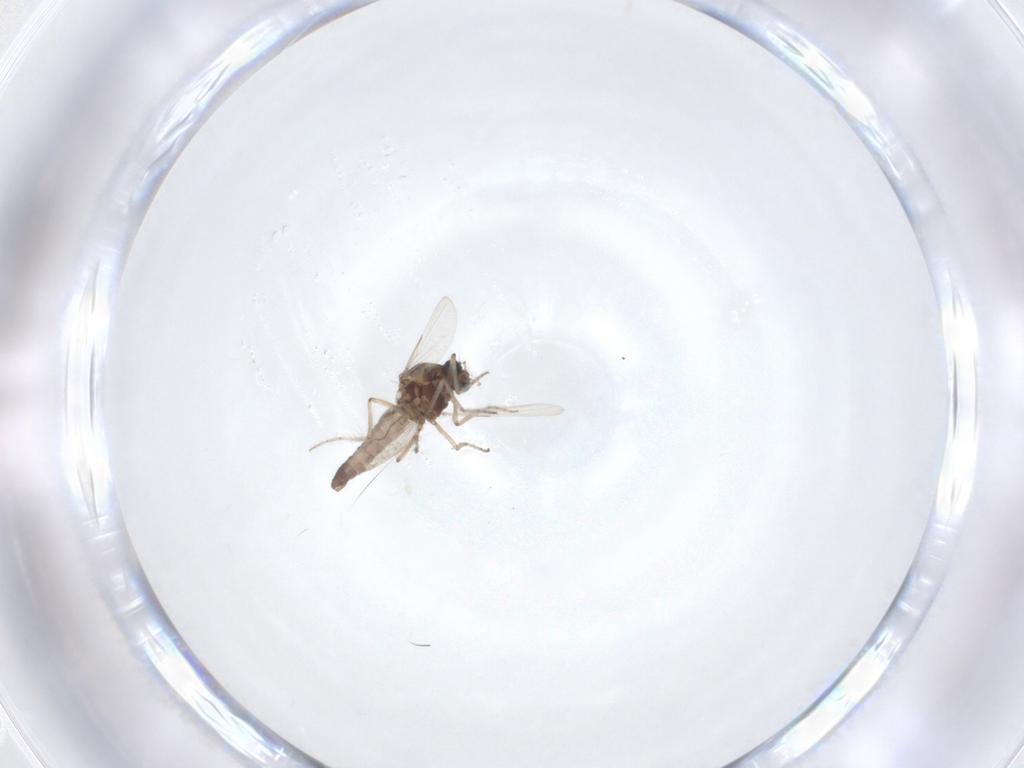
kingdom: Animalia
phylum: Arthropoda
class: Insecta
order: Diptera
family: Ceratopogonidae
